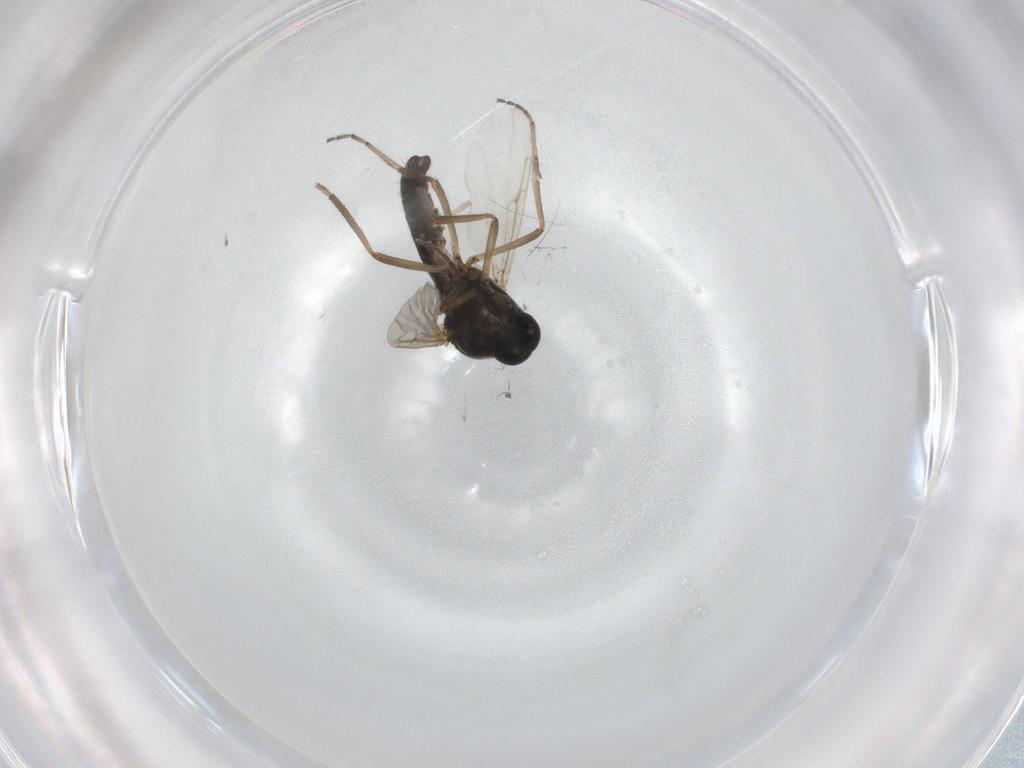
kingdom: Animalia
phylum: Arthropoda
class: Insecta
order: Diptera
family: Ceratopogonidae
